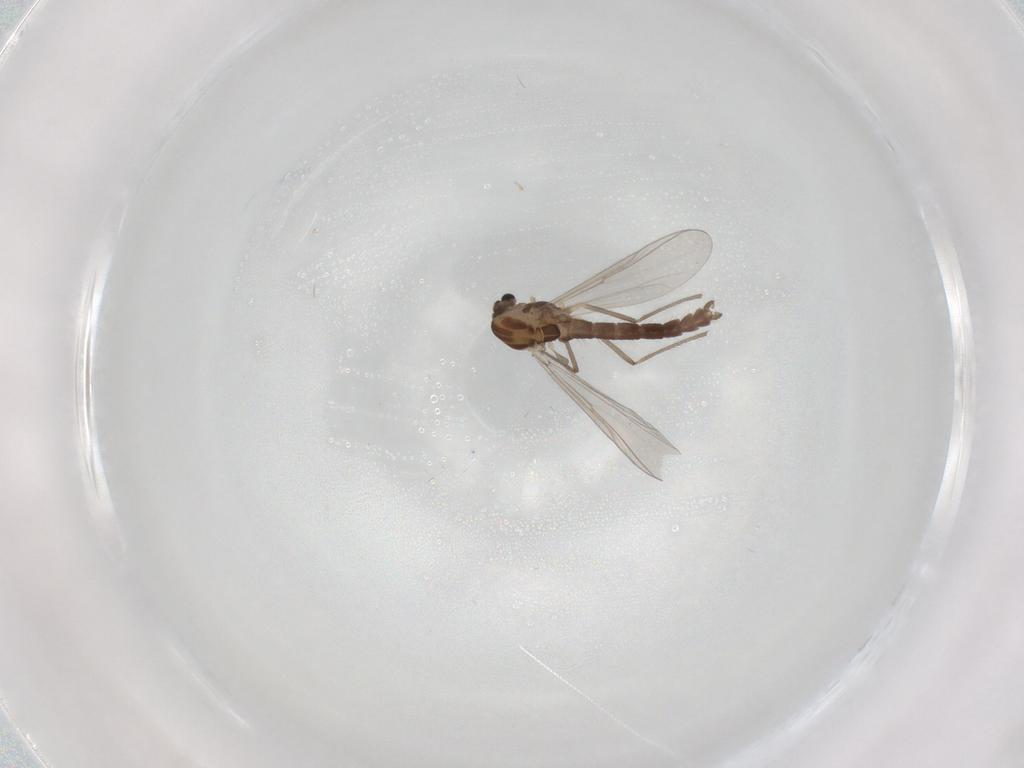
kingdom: Animalia
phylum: Arthropoda
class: Insecta
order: Diptera
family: Chironomidae
